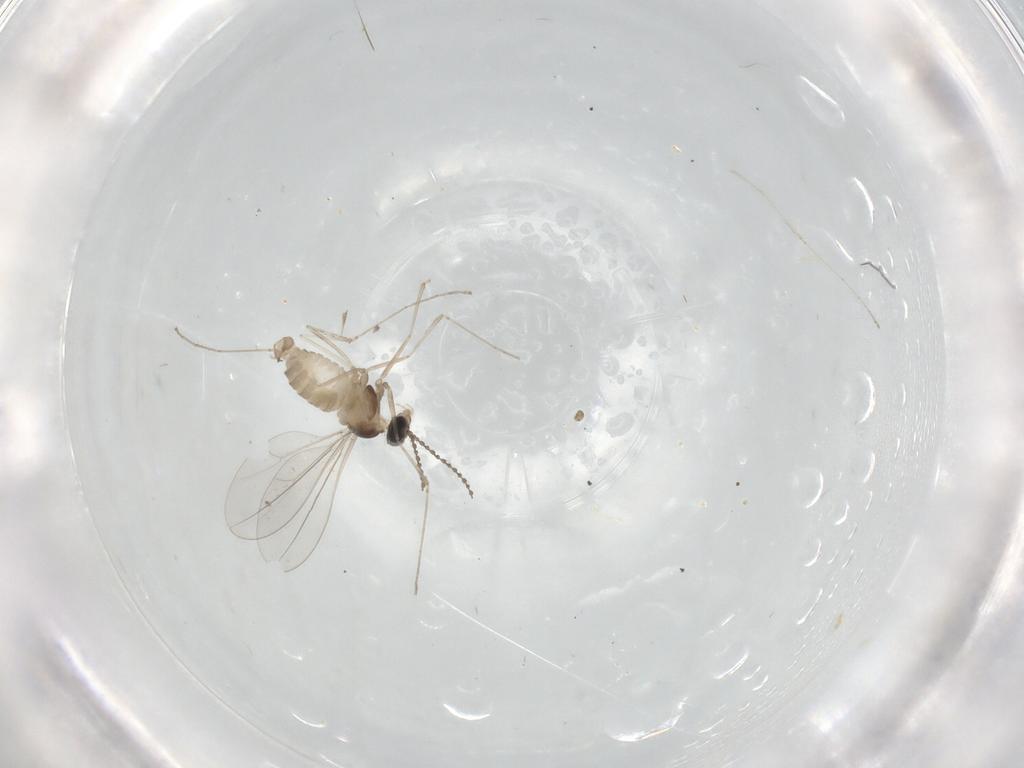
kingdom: Animalia
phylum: Arthropoda
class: Insecta
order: Diptera
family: Cecidomyiidae
